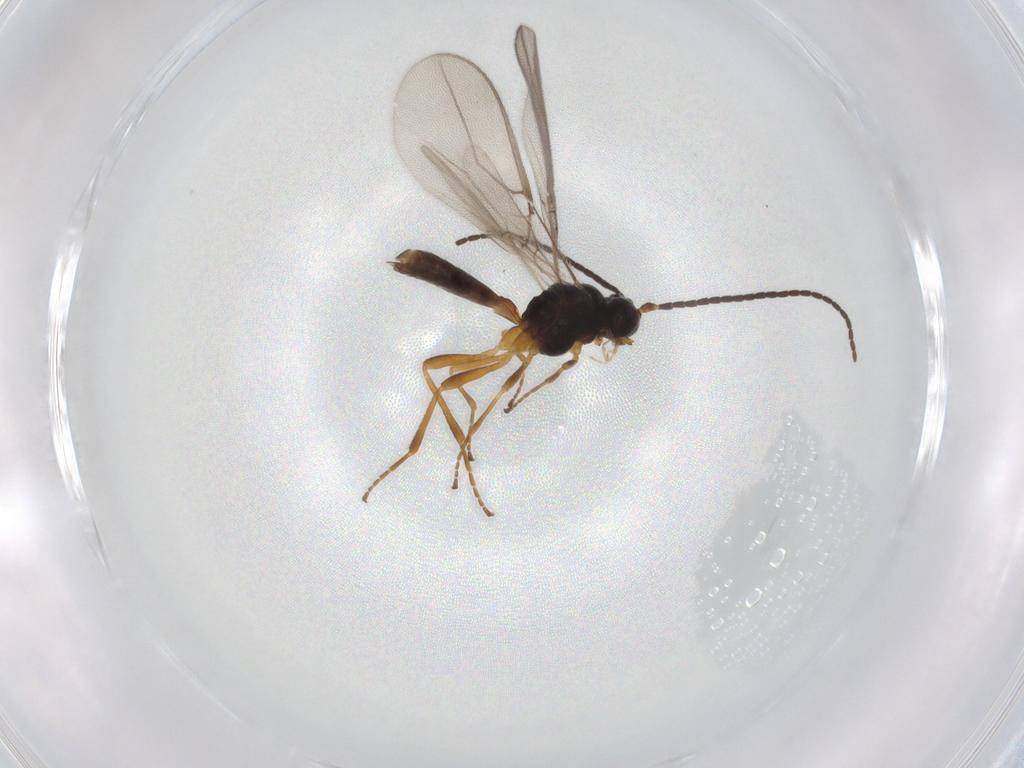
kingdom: Animalia
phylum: Arthropoda
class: Insecta
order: Hymenoptera
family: Braconidae
